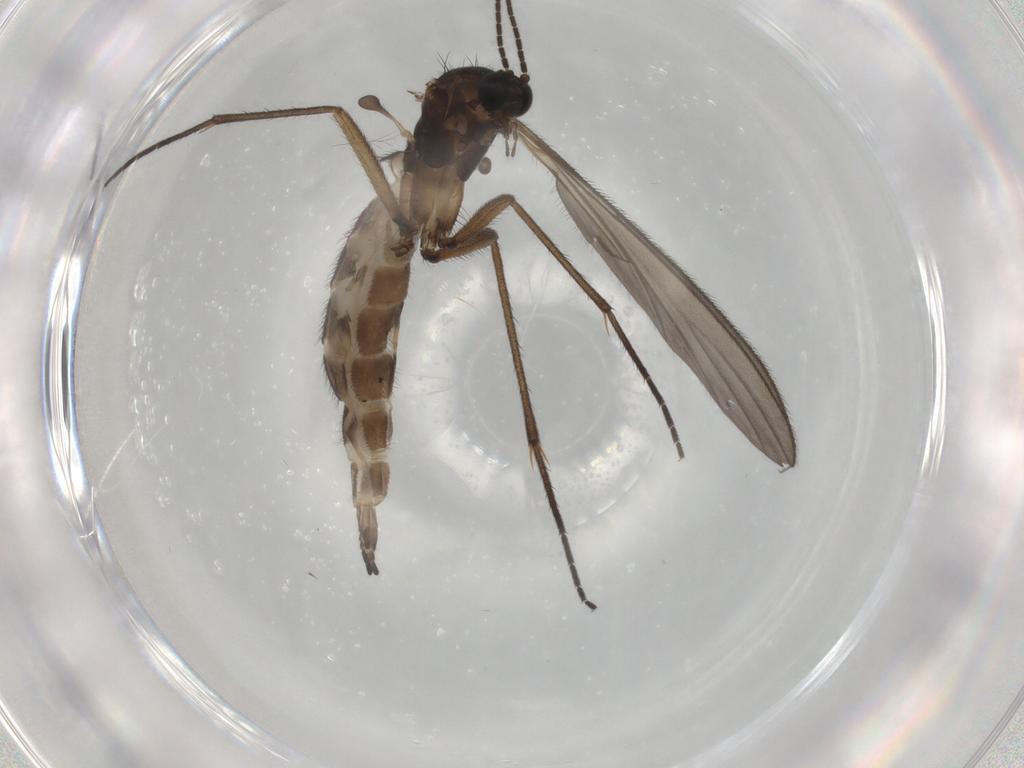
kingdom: Animalia
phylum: Arthropoda
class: Insecta
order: Diptera
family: Sciaridae
